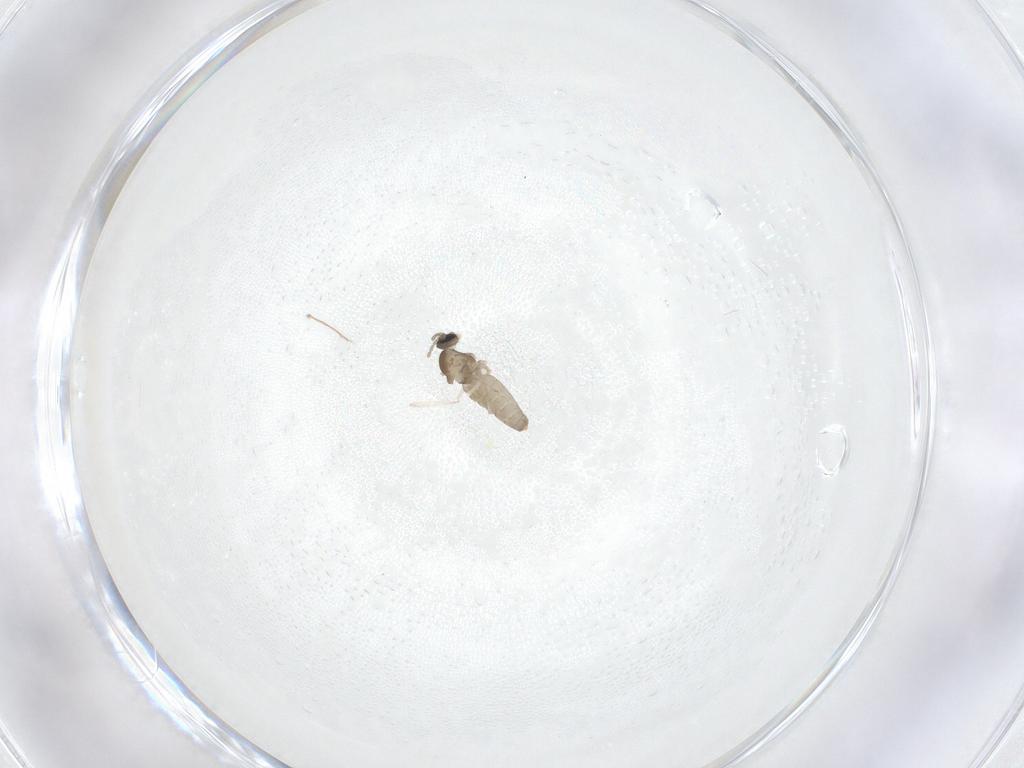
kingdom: Animalia
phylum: Arthropoda
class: Insecta
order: Diptera
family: Cecidomyiidae
